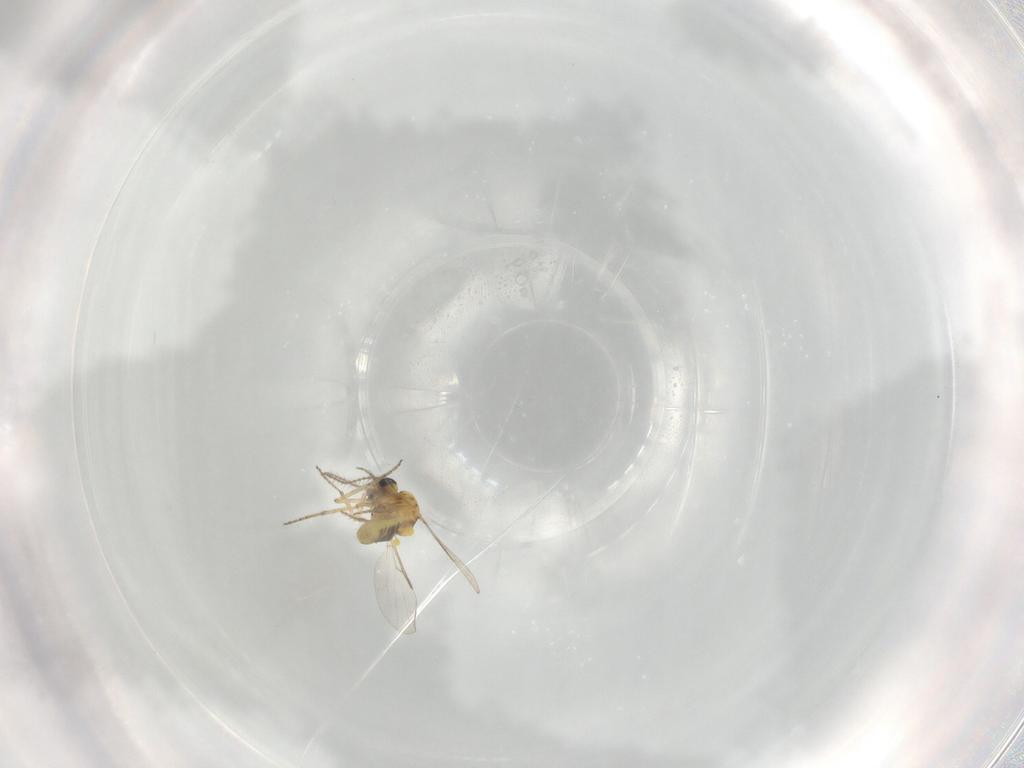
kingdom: Animalia
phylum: Arthropoda
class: Insecta
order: Diptera
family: Ceratopogonidae
